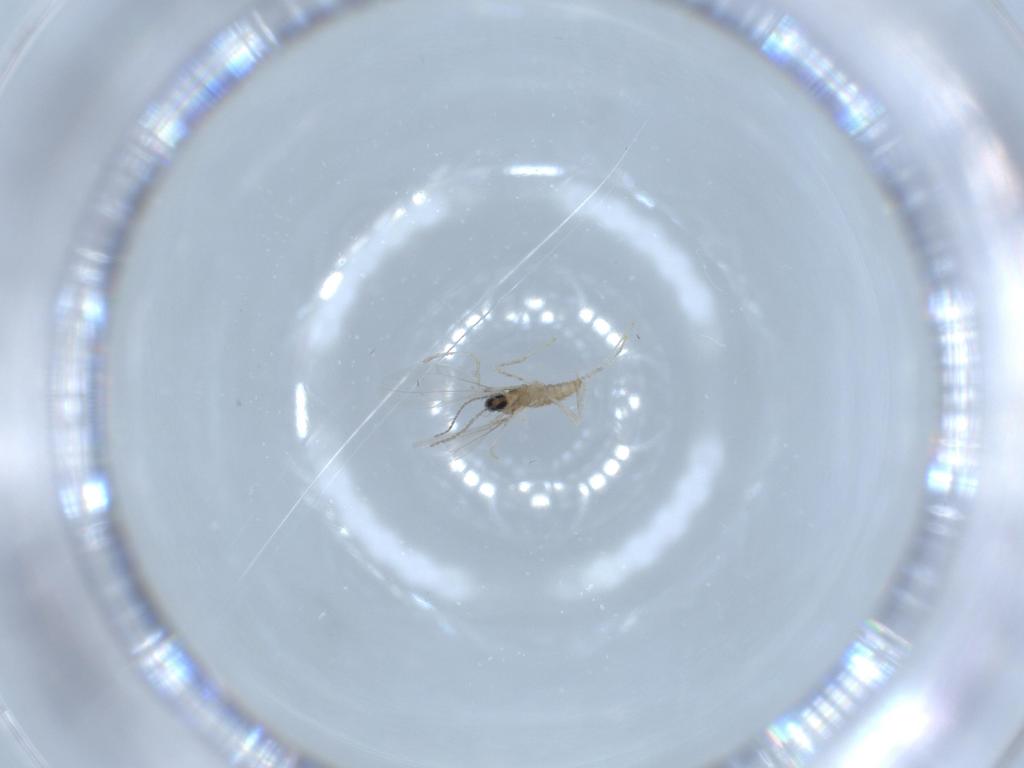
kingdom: Animalia
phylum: Arthropoda
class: Insecta
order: Diptera
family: Cecidomyiidae
